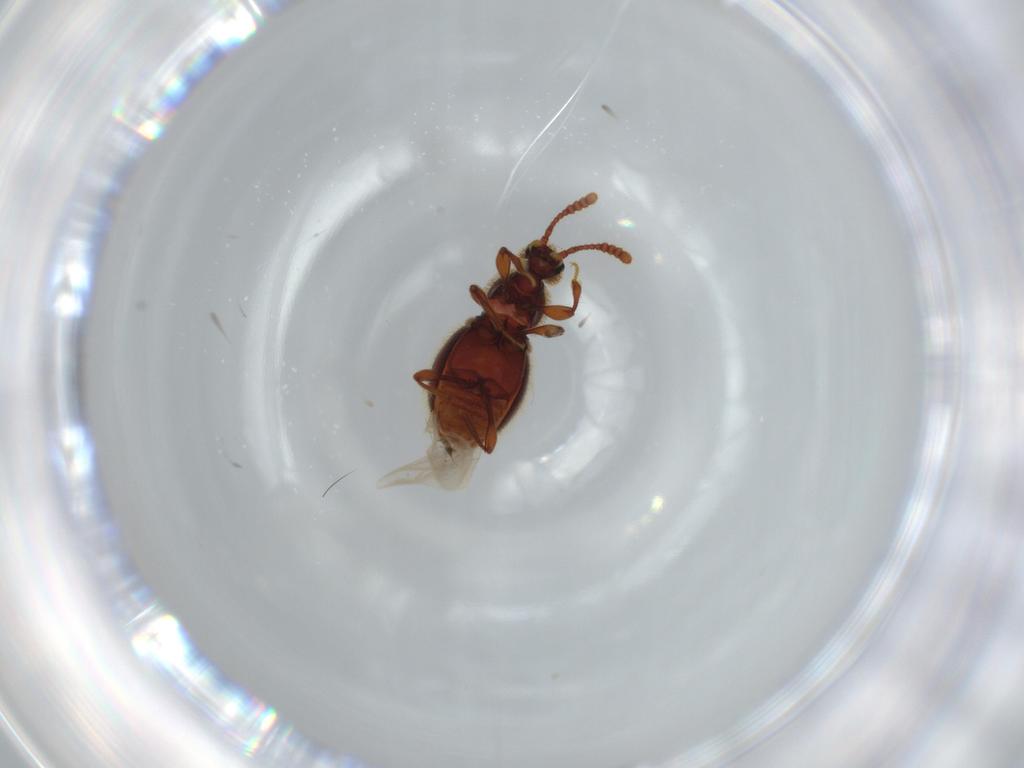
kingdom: Animalia
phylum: Arthropoda
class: Insecta
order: Coleoptera
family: Staphylinidae
